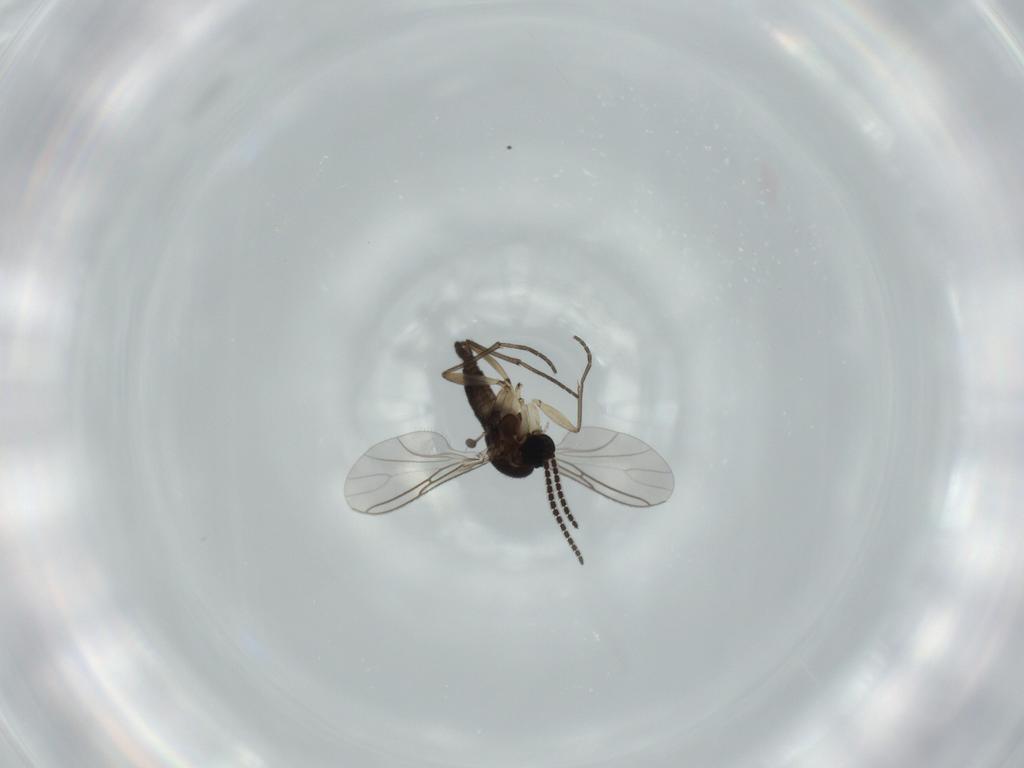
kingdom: Animalia
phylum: Arthropoda
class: Insecta
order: Diptera
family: Sciaridae
